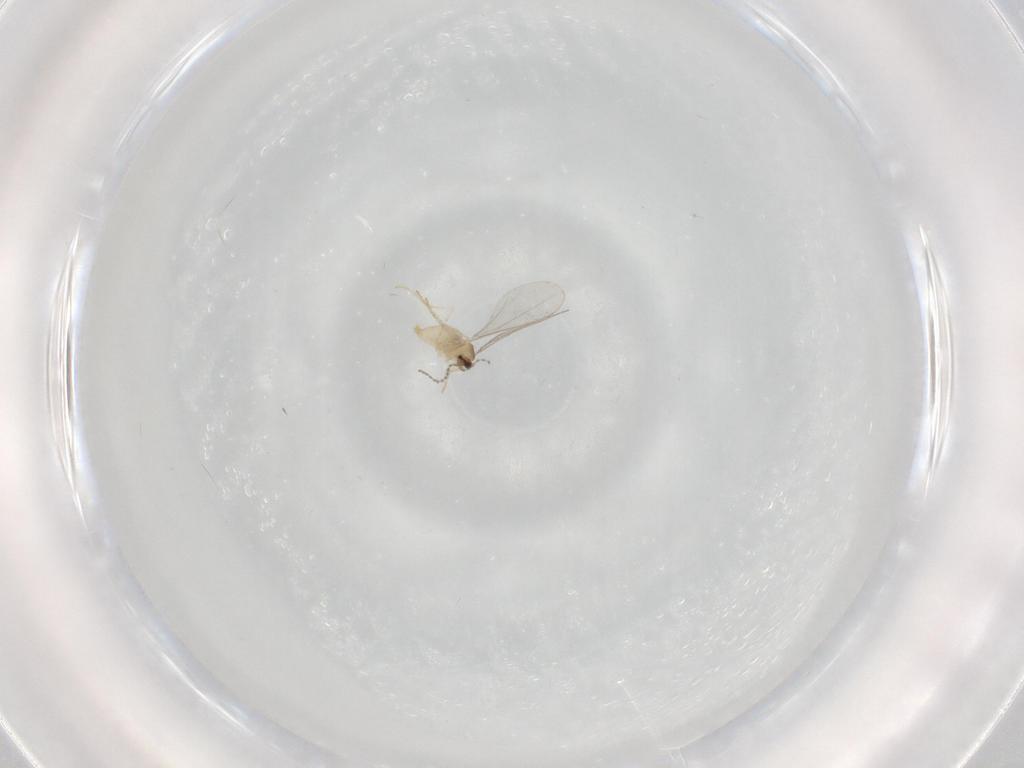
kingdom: Animalia
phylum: Arthropoda
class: Insecta
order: Diptera
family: Cecidomyiidae
